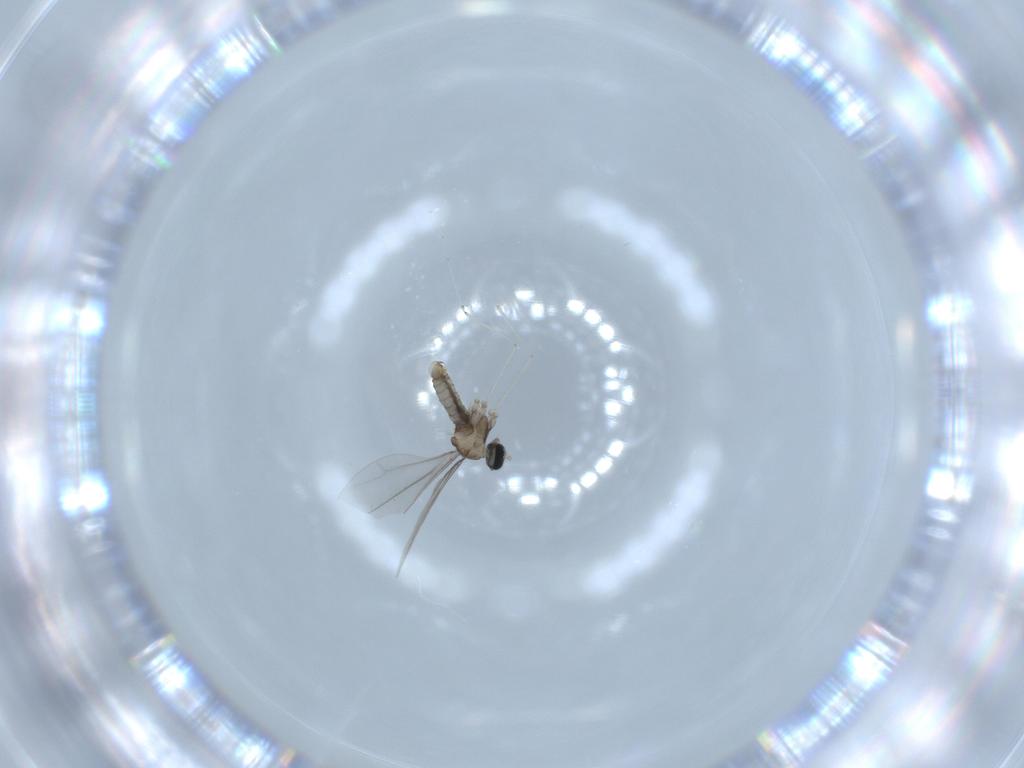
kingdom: Animalia
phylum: Arthropoda
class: Insecta
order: Diptera
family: Cecidomyiidae
